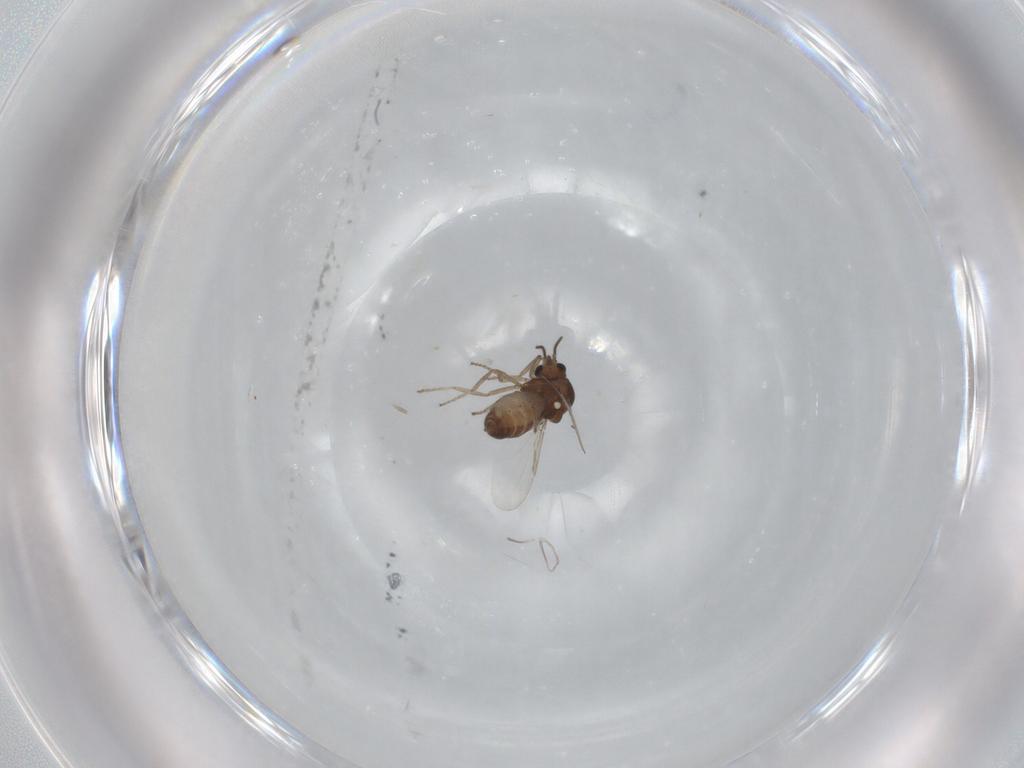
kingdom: Animalia
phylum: Arthropoda
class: Insecta
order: Diptera
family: Ceratopogonidae
